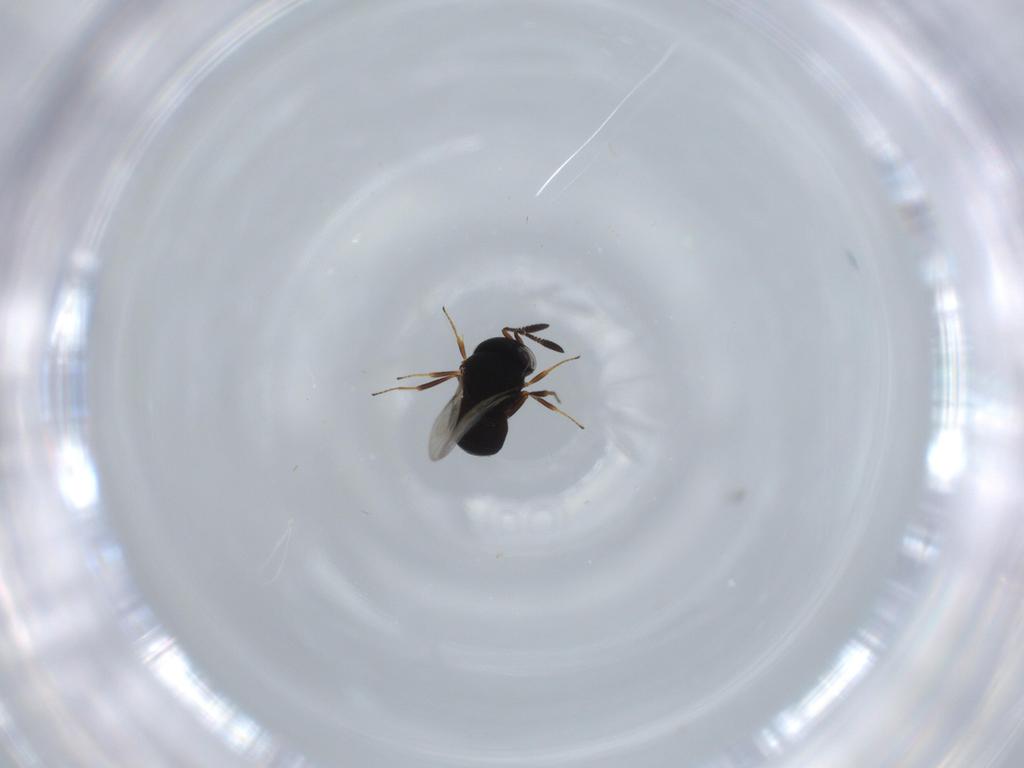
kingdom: Animalia
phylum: Arthropoda
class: Insecta
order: Hymenoptera
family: Scelionidae
